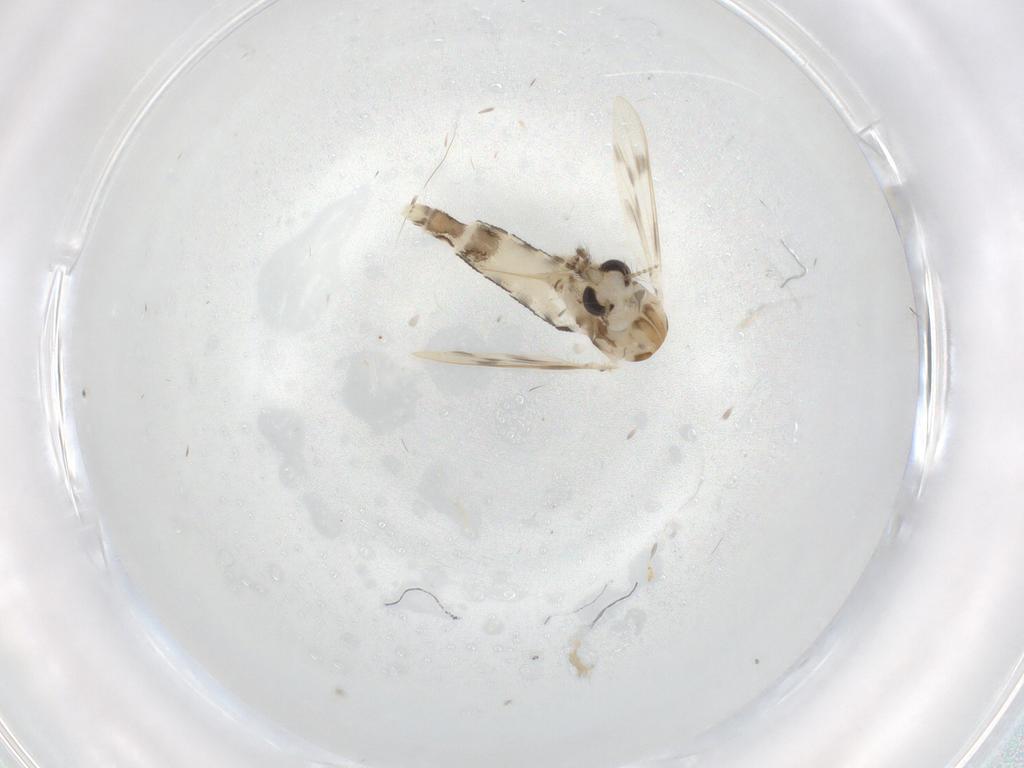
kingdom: Animalia
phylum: Arthropoda
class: Insecta
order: Diptera
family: Corethrellidae
